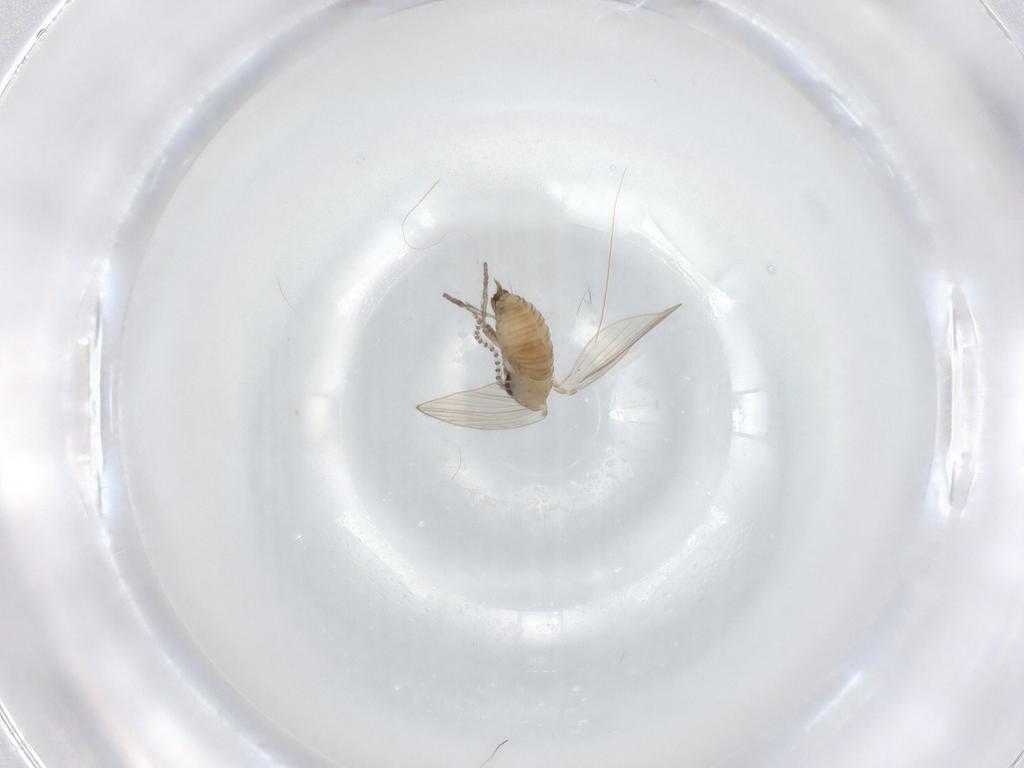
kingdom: Animalia
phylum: Arthropoda
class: Insecta
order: Diptera
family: Psychodidae
